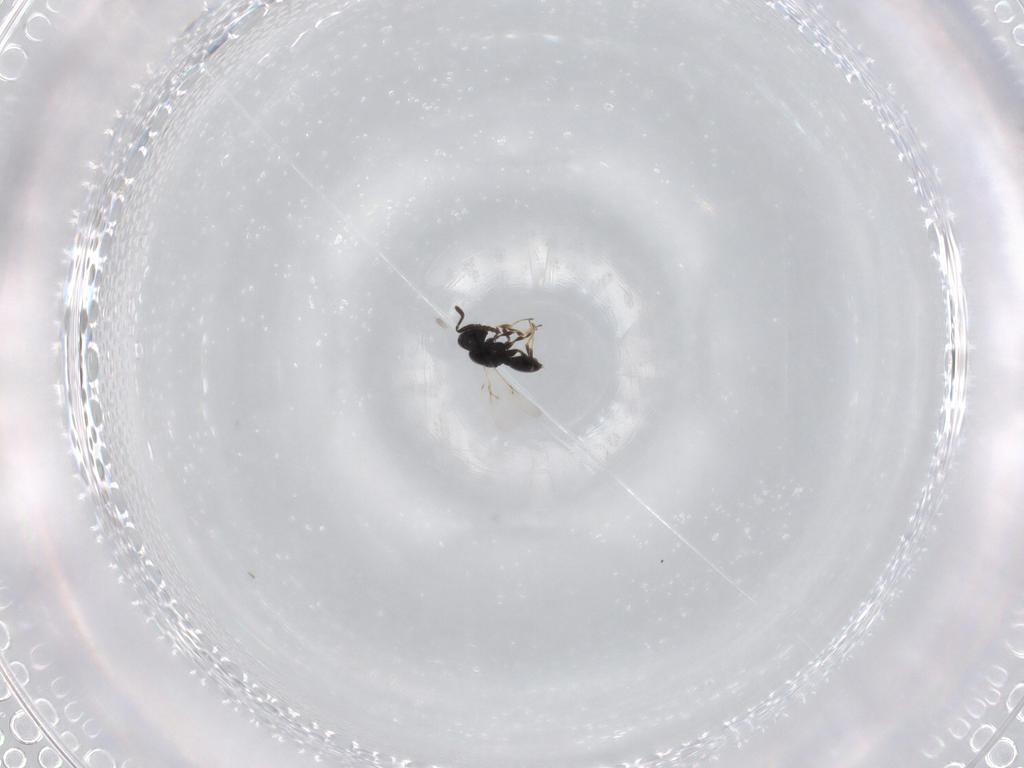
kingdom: Animalia
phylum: Arthropoda
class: Insecta
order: Hymenoptera
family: Scelionidae
